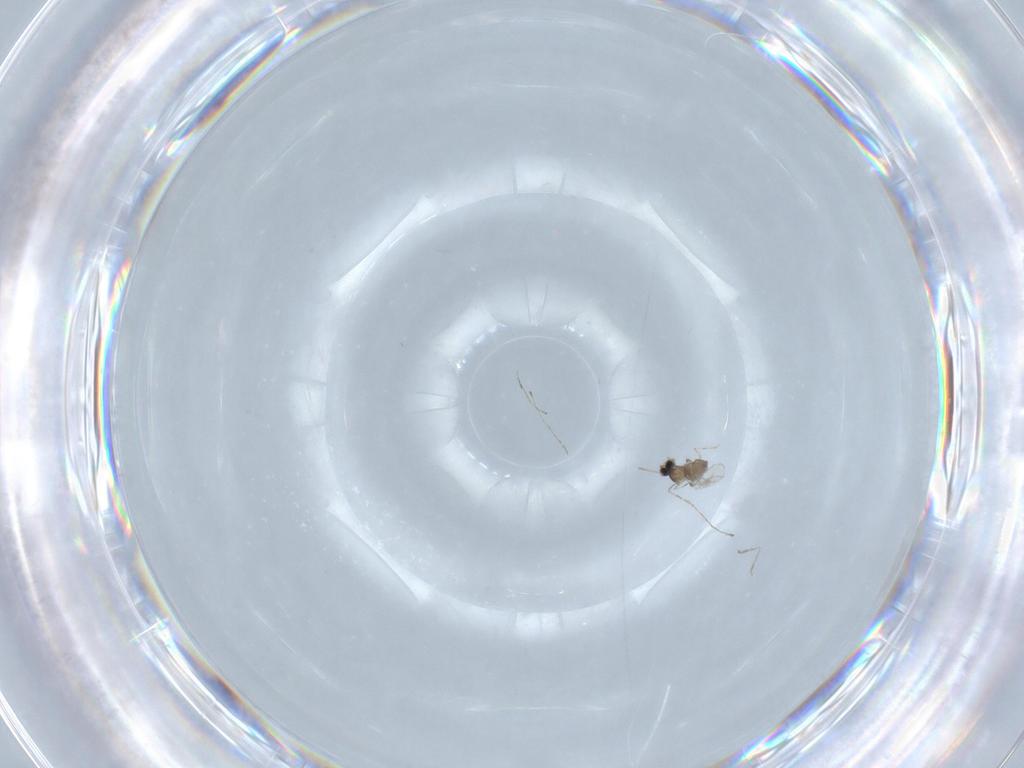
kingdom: Animalia
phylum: Arthropoda
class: Insecta
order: Diptera
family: Cecidomyiidae
